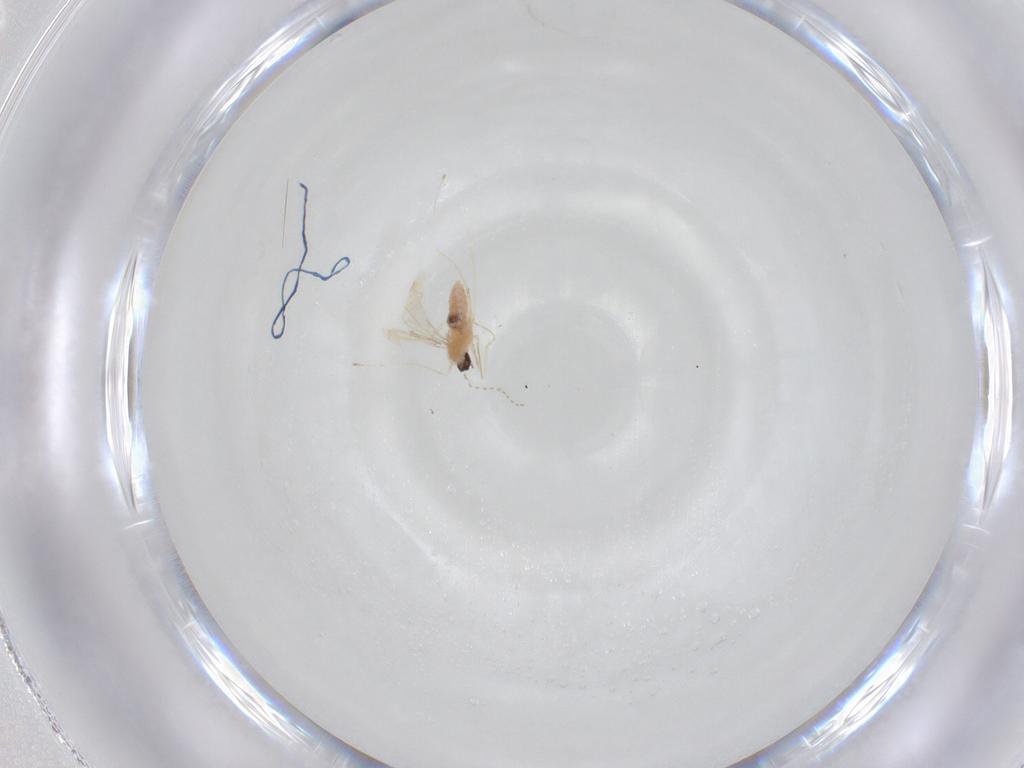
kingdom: Animalia
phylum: Arthropoda
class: Insecta
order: Diptera
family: Cecidomyiidae
